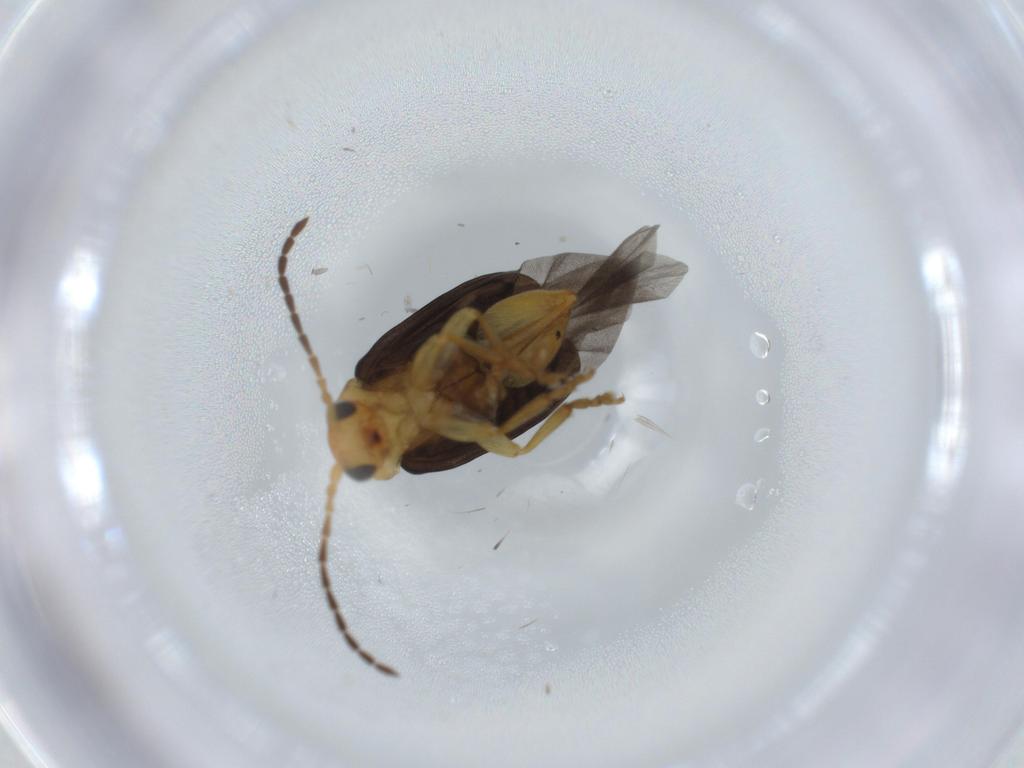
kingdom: Animalia
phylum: Arthropoda
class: Insecta
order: Coleoptera
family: Chrysomelidae
